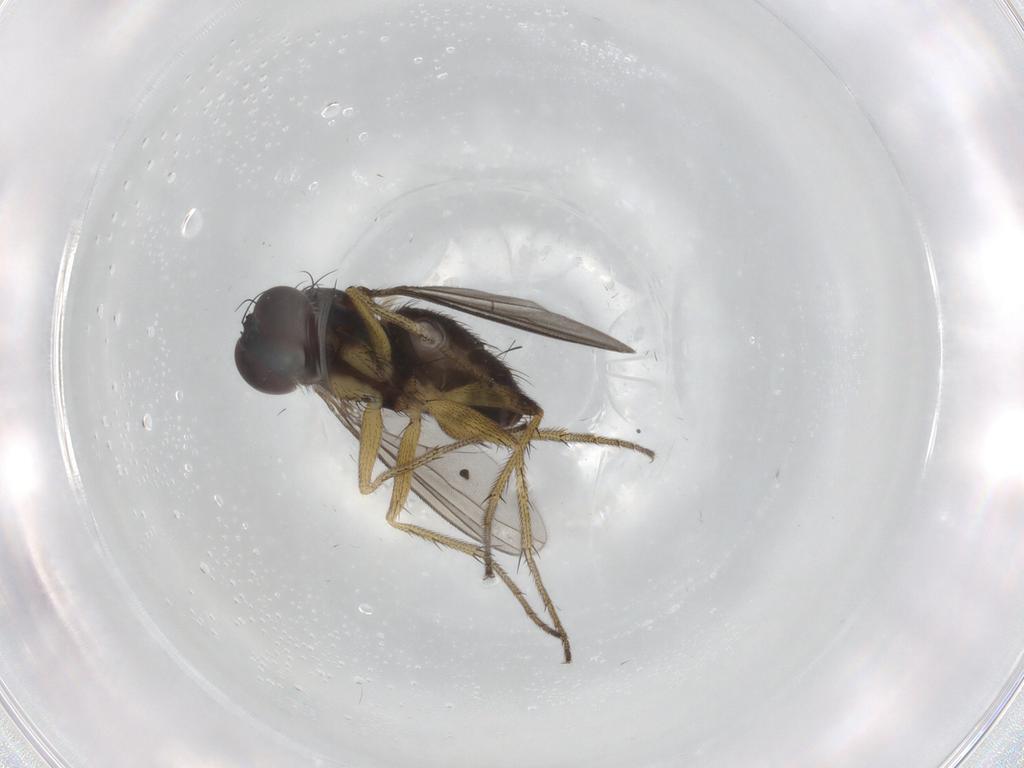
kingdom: Animalia
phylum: Arthropoda
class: Insecta
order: Diptera
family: Dolichopodidae
